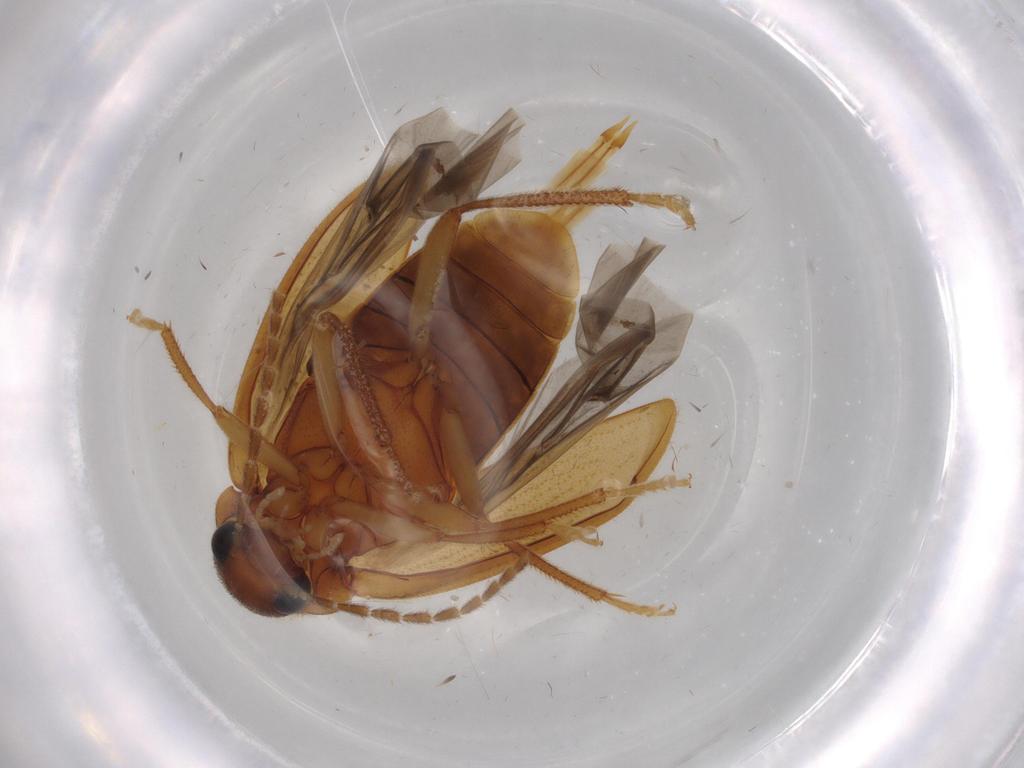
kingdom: Animalia
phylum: Arthropoda
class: Insecta
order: Coleoptera
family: Ptilodactylidae
